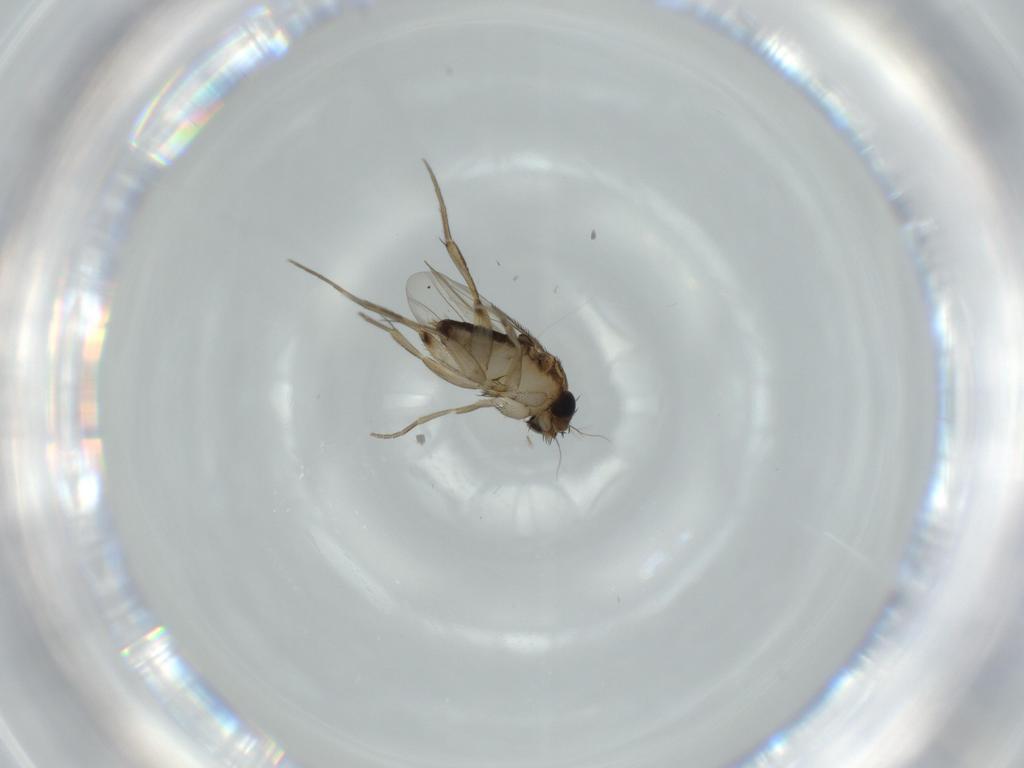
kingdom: Animalia
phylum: Arthropoda
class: Insecta
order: Diptera
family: Phoridae
